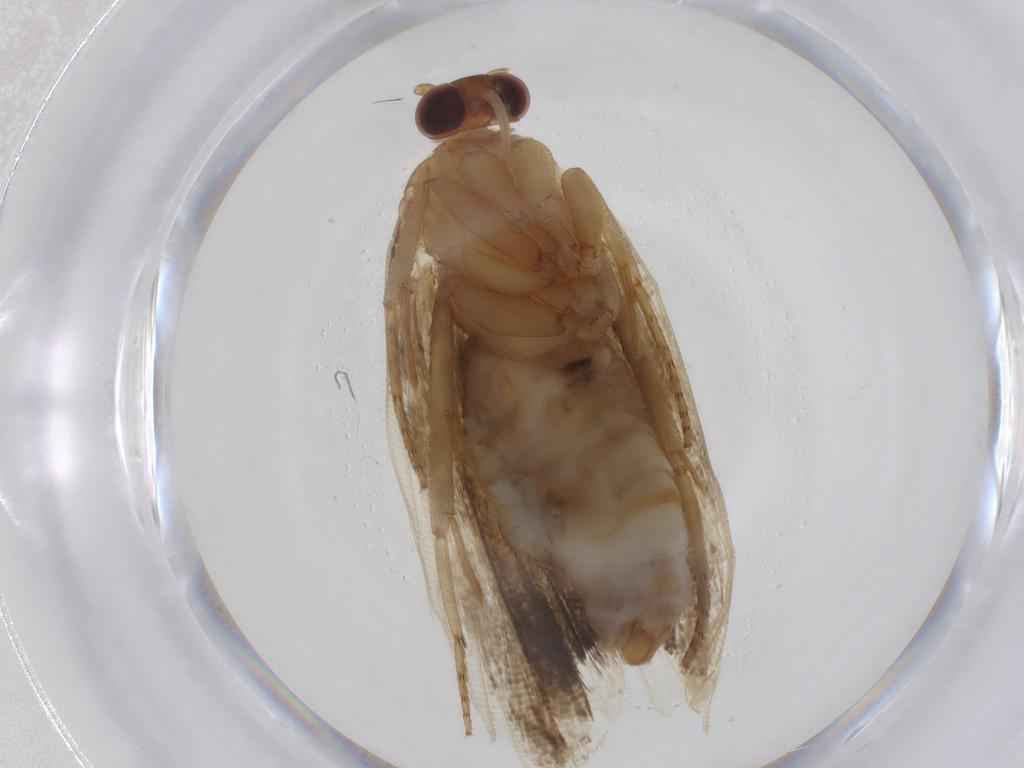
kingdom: Animalia
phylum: Arthropoda
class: Insecta
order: Lepidoptera
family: Tortricidae
